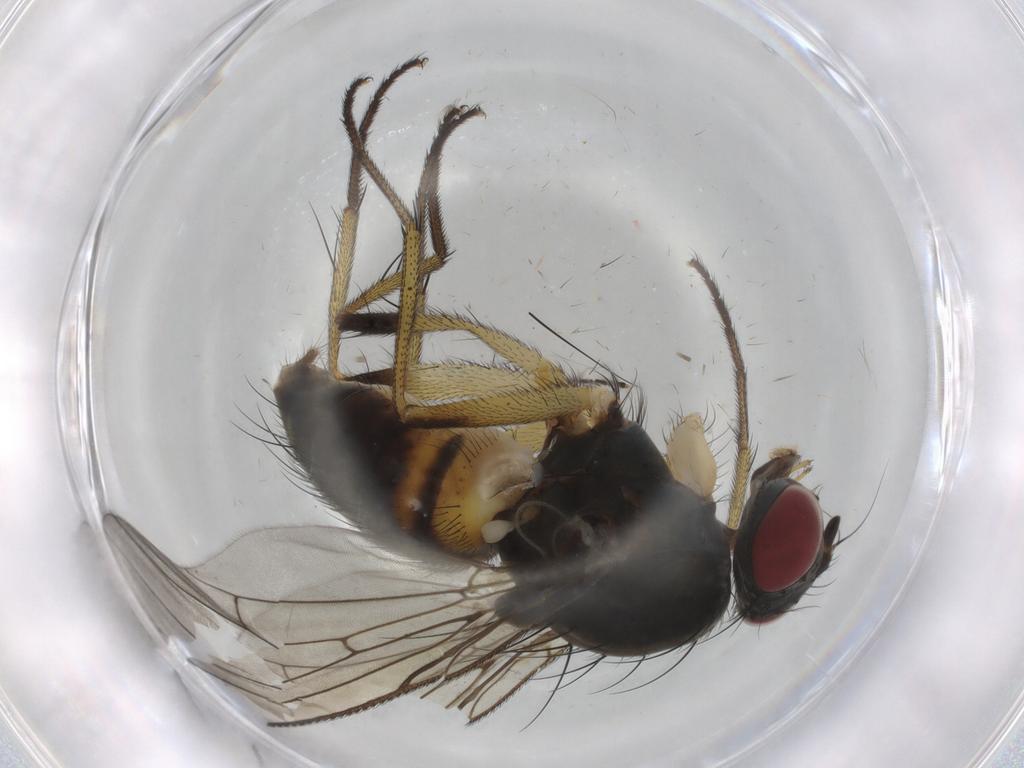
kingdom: Animalia
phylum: Arthropoda
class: Insecta
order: Diptera
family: Muscidae
